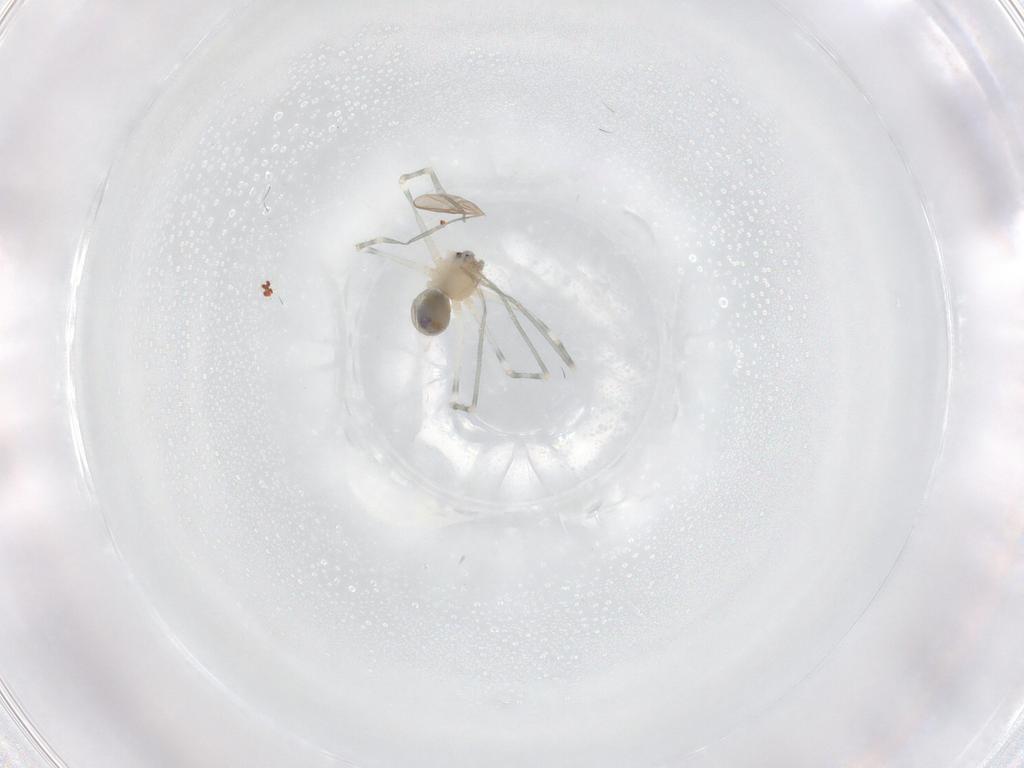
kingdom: Animalia
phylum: Arthropoda
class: Arachnida
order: Araneae
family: Pholcidae
